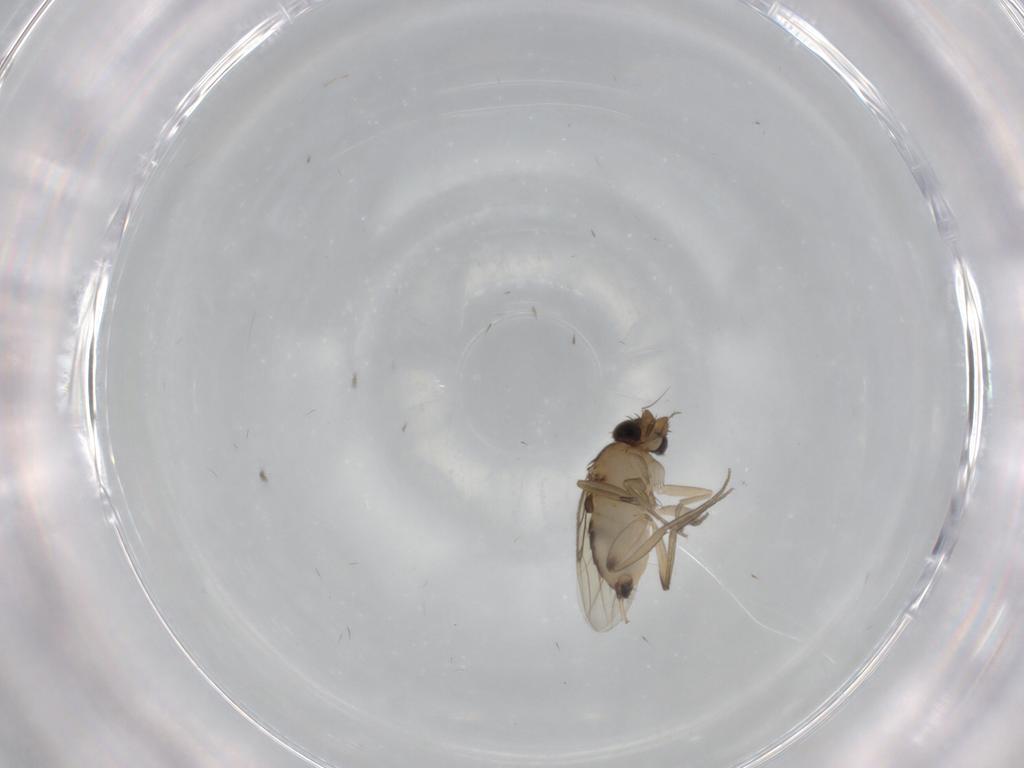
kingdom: Animalia
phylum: Arthropoda
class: Insecta
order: Diptera
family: Phoridae
